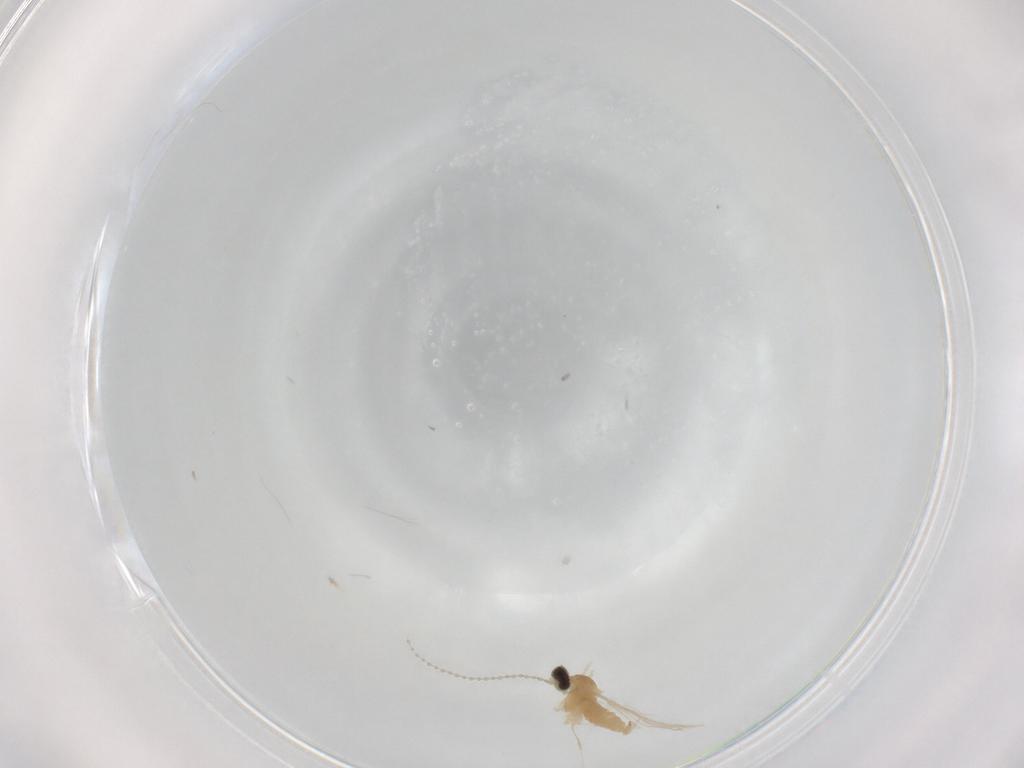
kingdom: Animalia
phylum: Arthropoda
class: Insecta
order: Diptera
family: Cecidomyiidae
